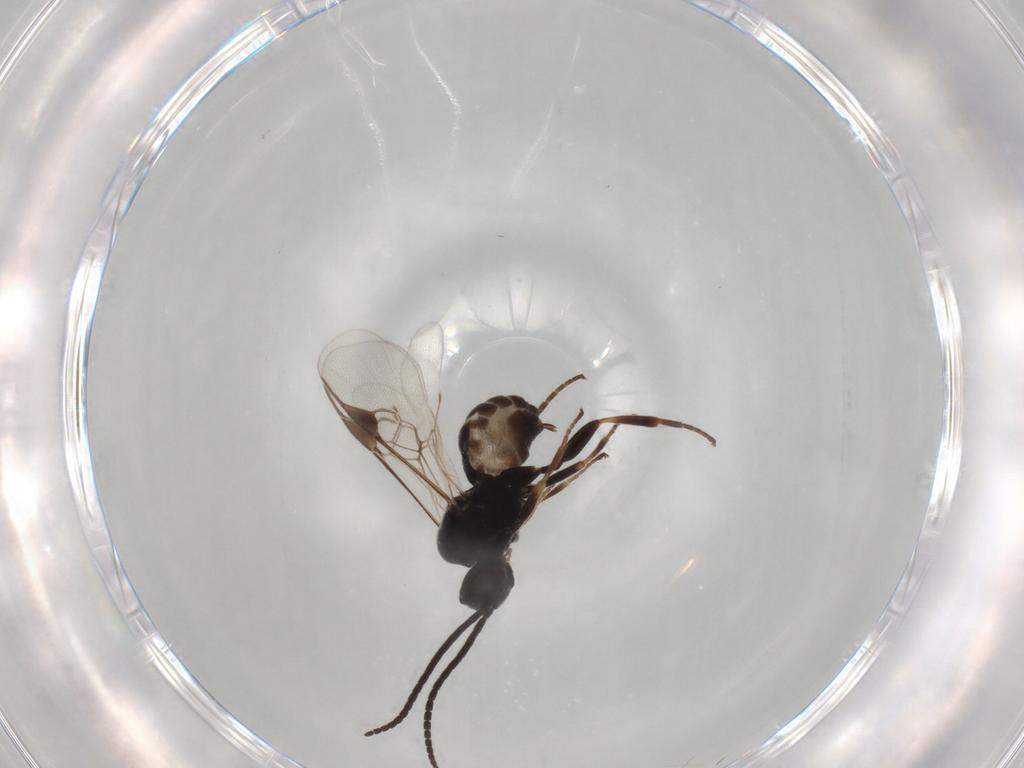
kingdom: Animalia
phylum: Arthropoda
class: Insecta
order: Hymenoptera
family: Braconidae
